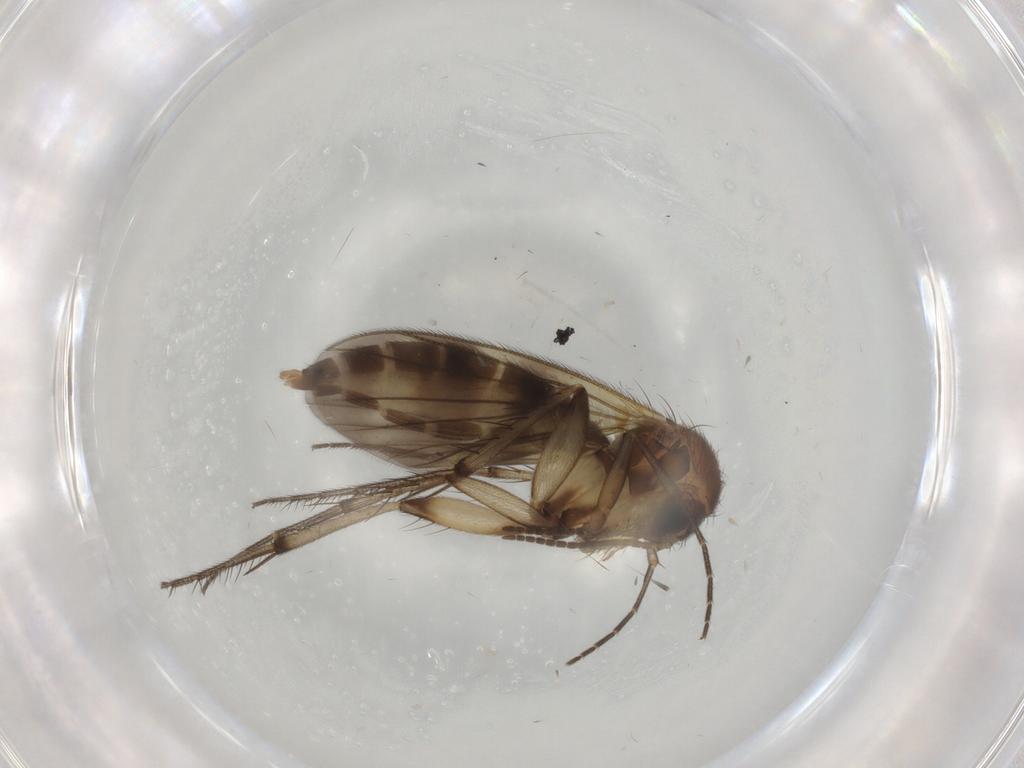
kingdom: Animalia
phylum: Arthropoda
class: Insecta
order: Diptera
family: Mycetophilidae
